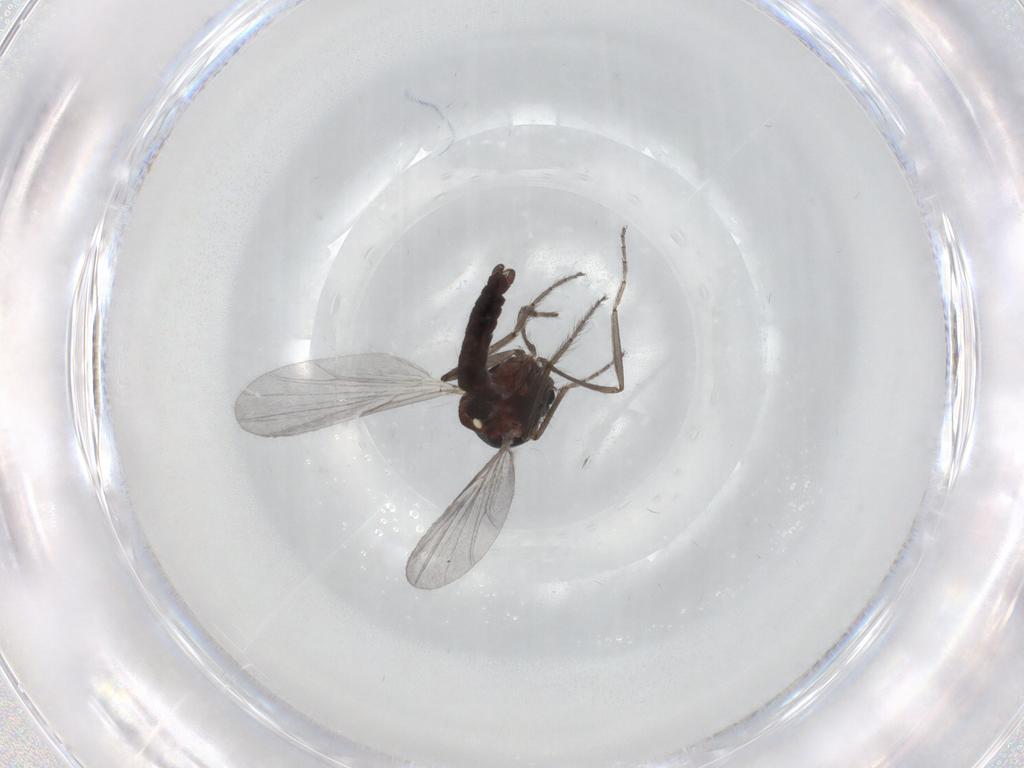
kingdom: Animalia
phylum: Arthropoda
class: Insecta
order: Diptera
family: Ceratopogonidae
